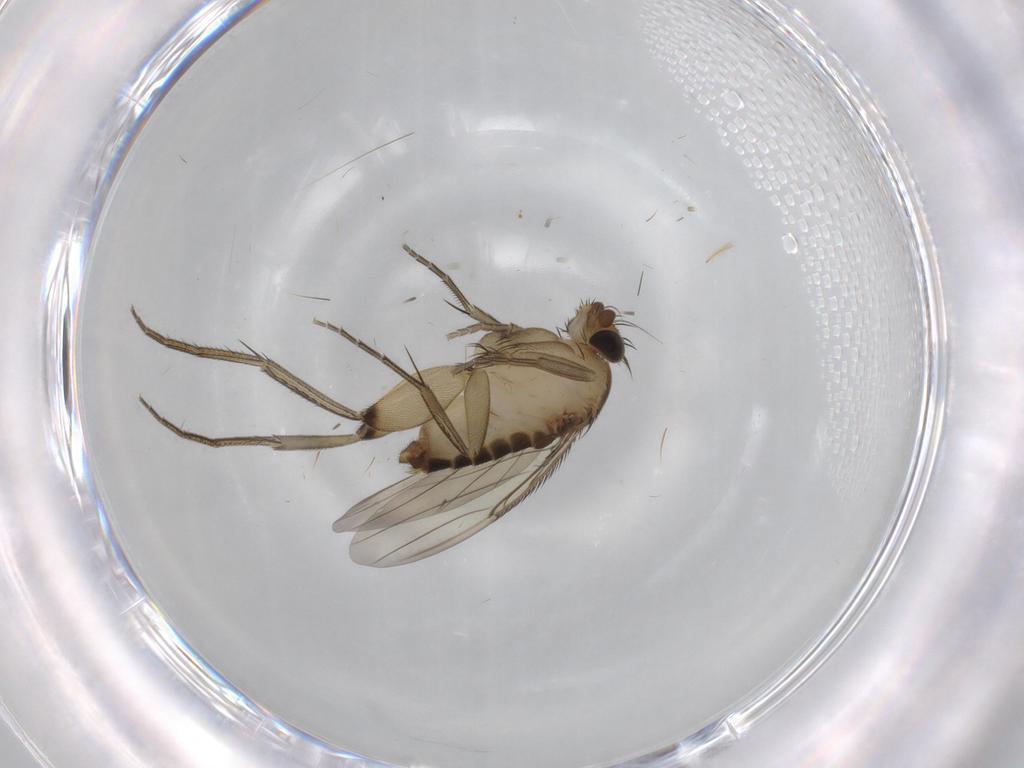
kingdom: Animalia
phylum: Arthropoda
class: Insecta
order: Diptera
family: Phoridae
